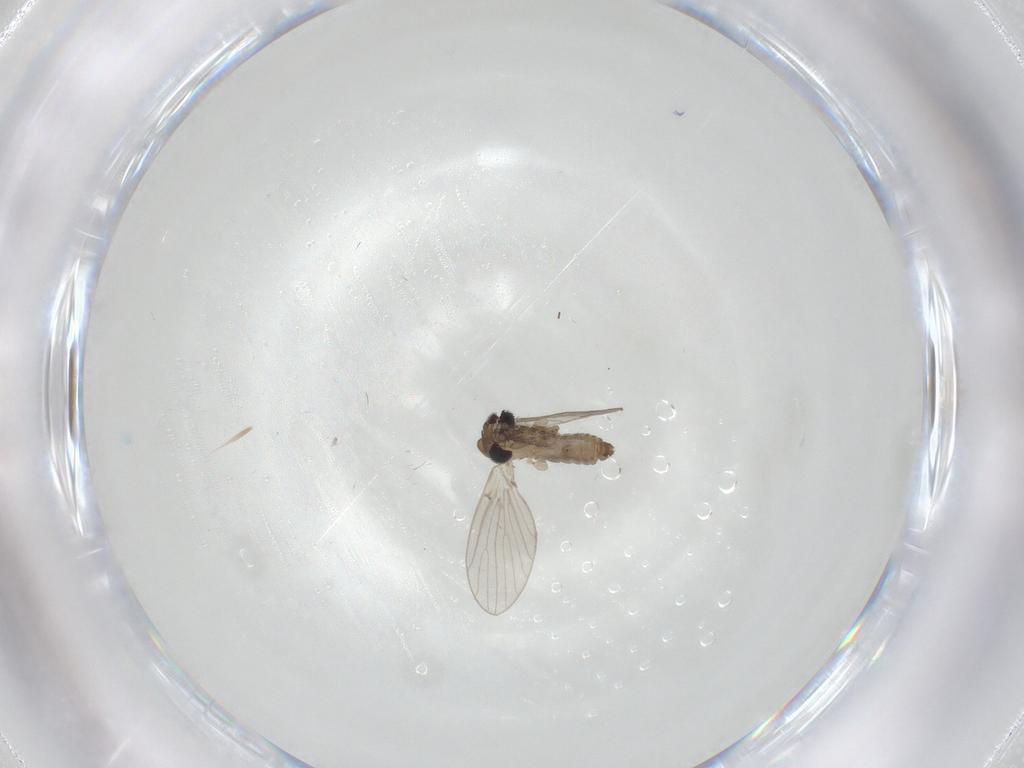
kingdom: Animalia
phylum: Arthropoda
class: Insecta
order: Diptera
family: Psychodidae
